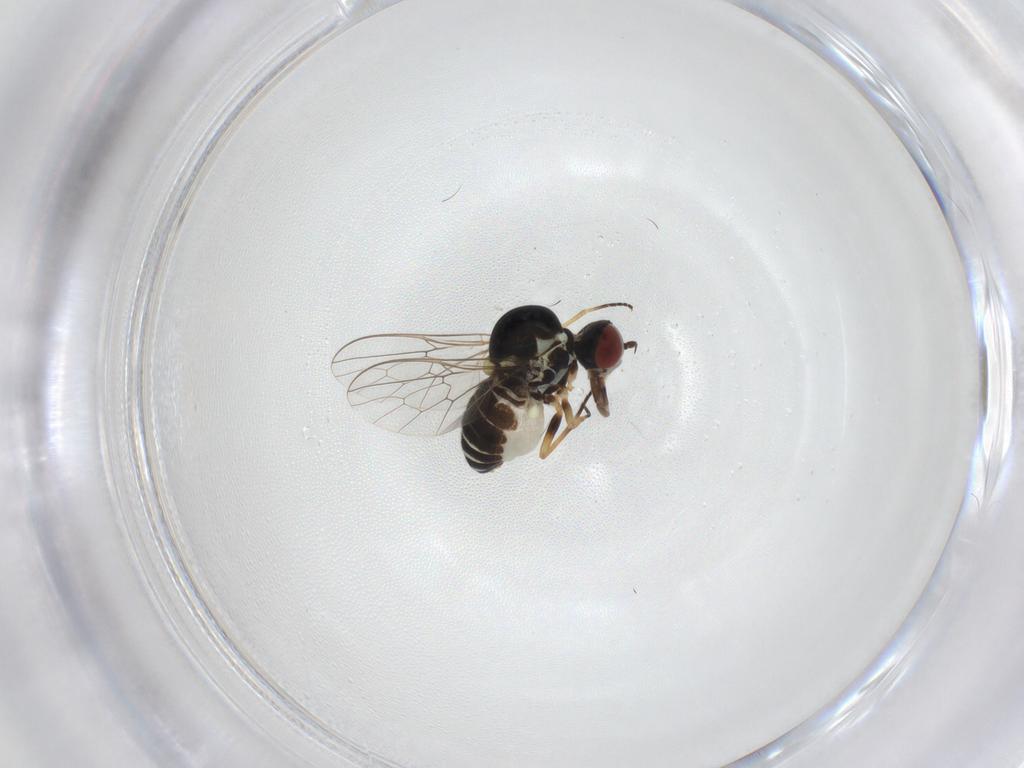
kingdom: Animalia
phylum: Arthropoda
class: Insecta
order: Diptera
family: Bombyliidae
